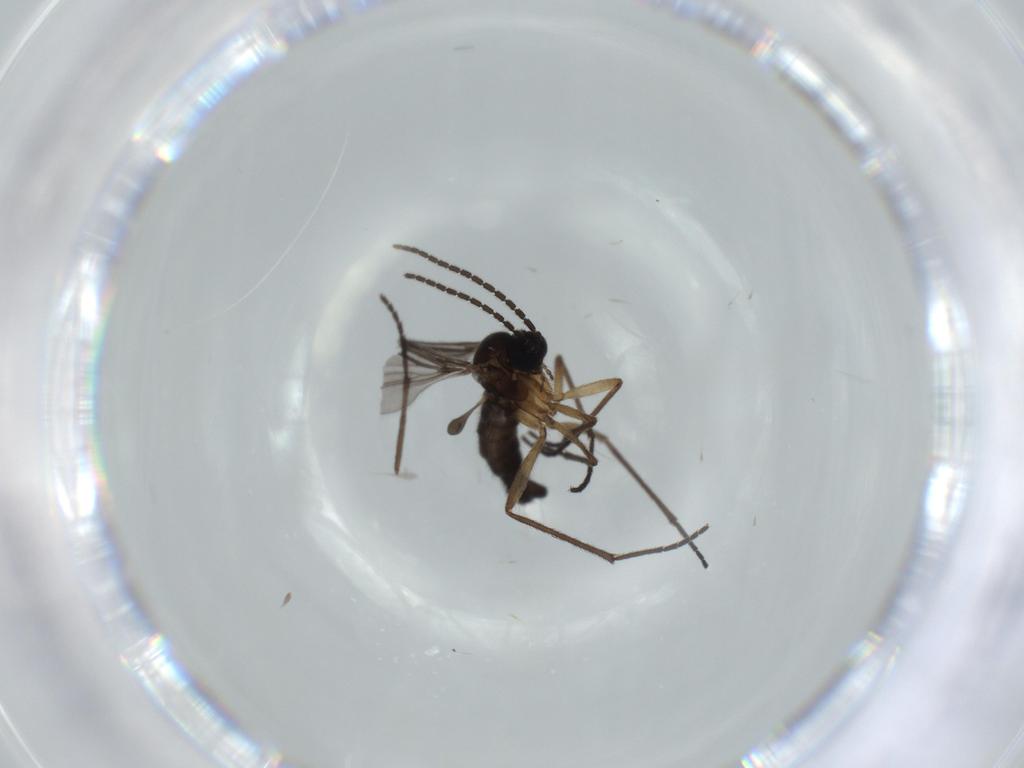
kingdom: Animalia
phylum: Arthropoda
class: Insecta
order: Diptera
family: Sciaridae
